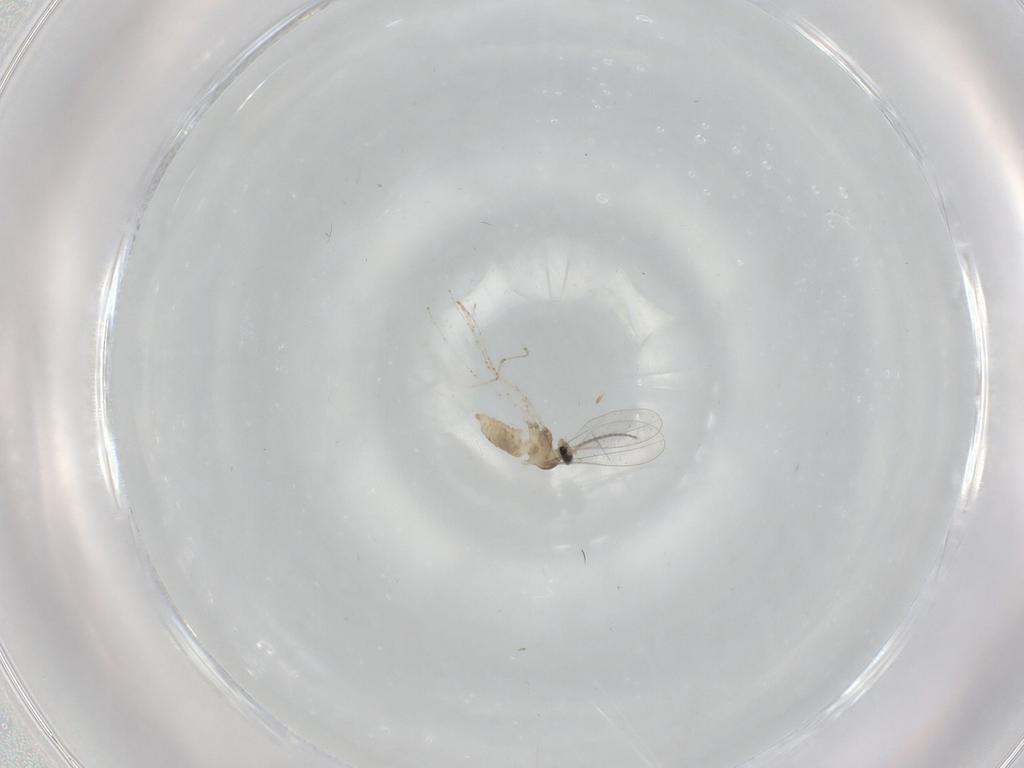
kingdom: Animalia
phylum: Arthropoda
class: Insecta
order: Diptera
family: Cecidomyiidae
